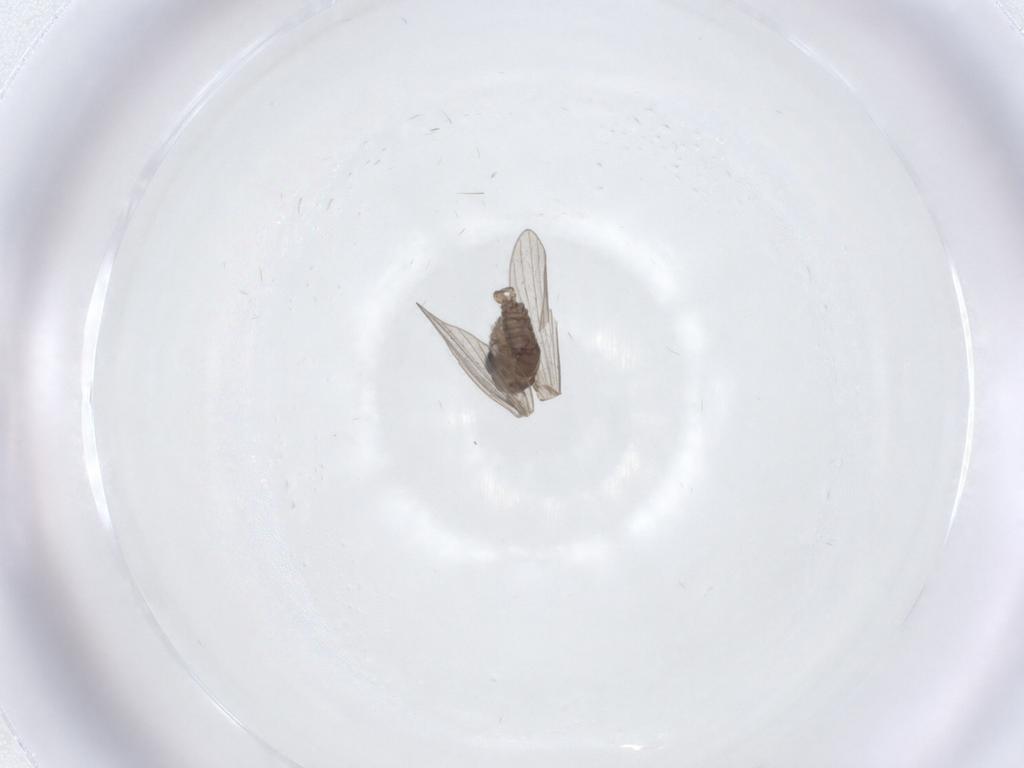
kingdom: Animalia
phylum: Arthropoda
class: Insecta
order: Diptera
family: Psychodidae
